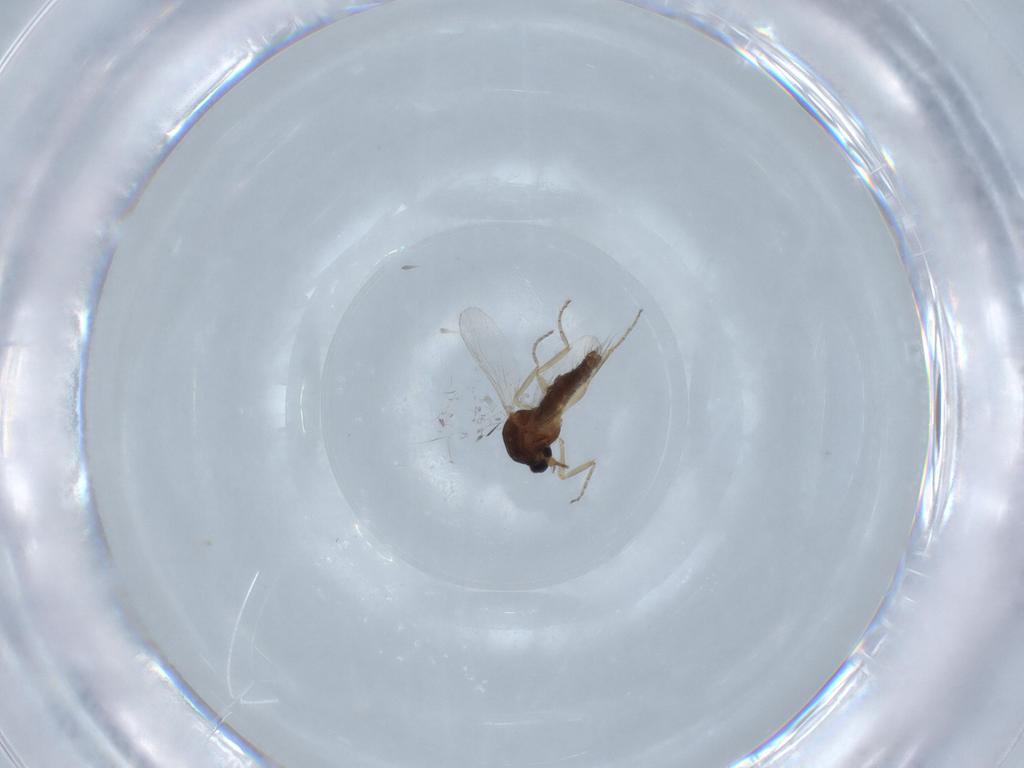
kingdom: Animalia
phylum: Arthropoda
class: Insecta
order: Diptera
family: Ceratopogonidae
